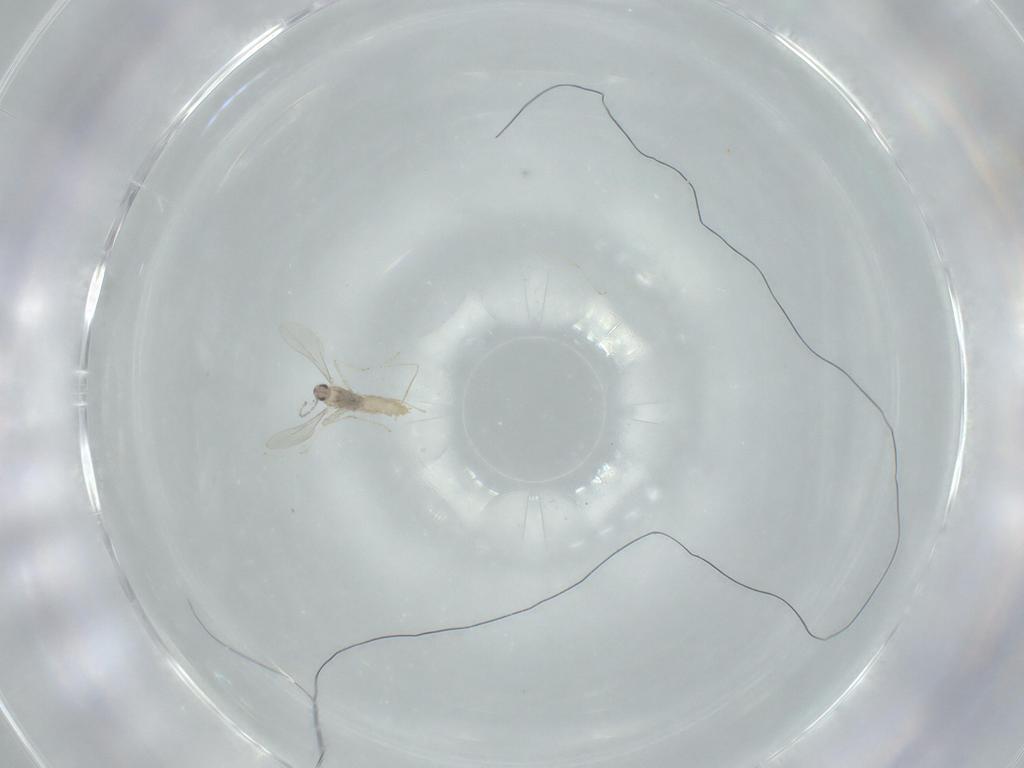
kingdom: Animalia
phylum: Arthropoda
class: Insecta
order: Diptera
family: Cecidomyiidae
